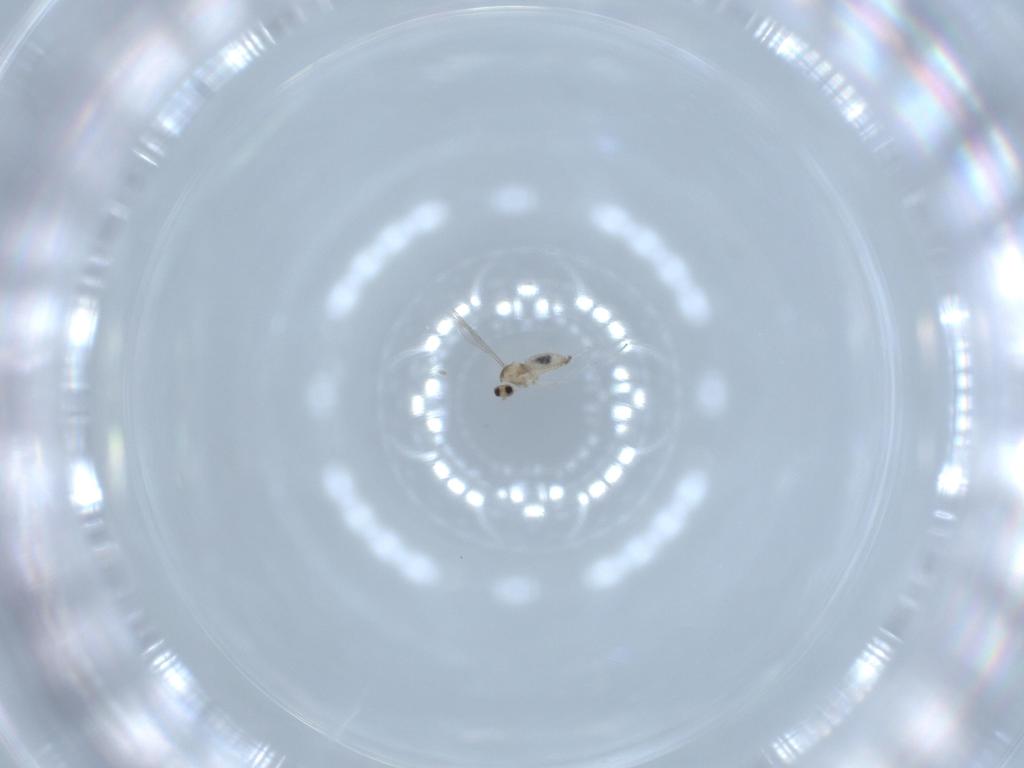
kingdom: Animalia
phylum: Arthropoda
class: Insecta
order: Diptera
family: Cecidomyiidae
